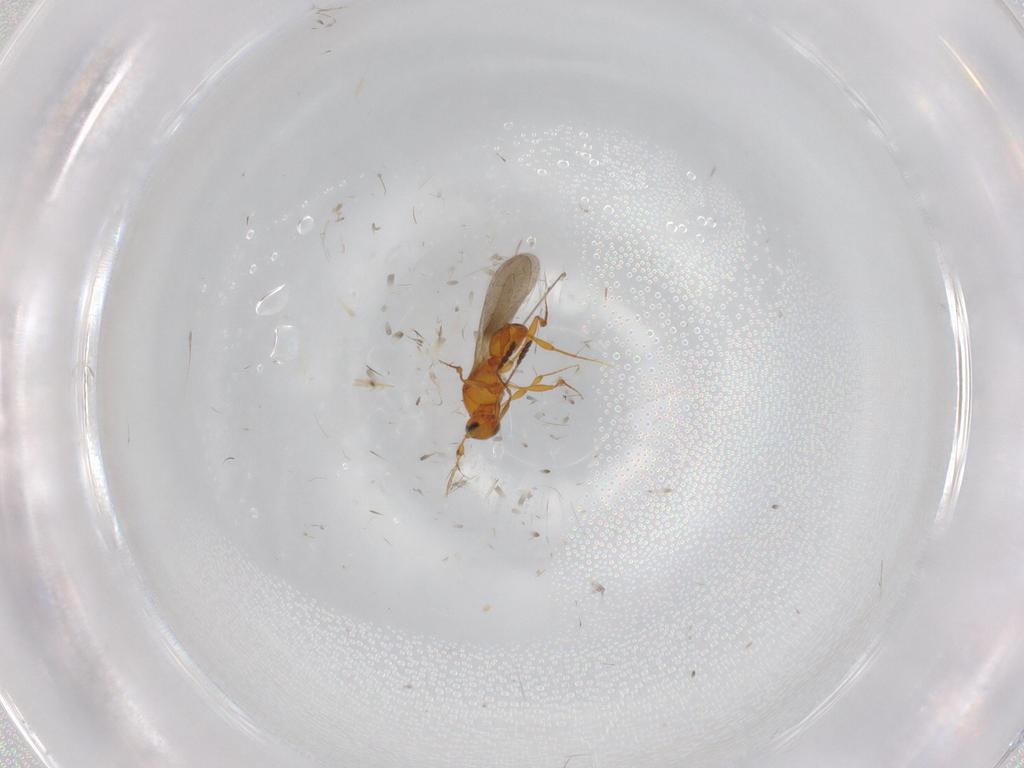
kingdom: Animalia
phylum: Arthropoda
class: Insecta
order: Hymenoptera
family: Platygastridae
